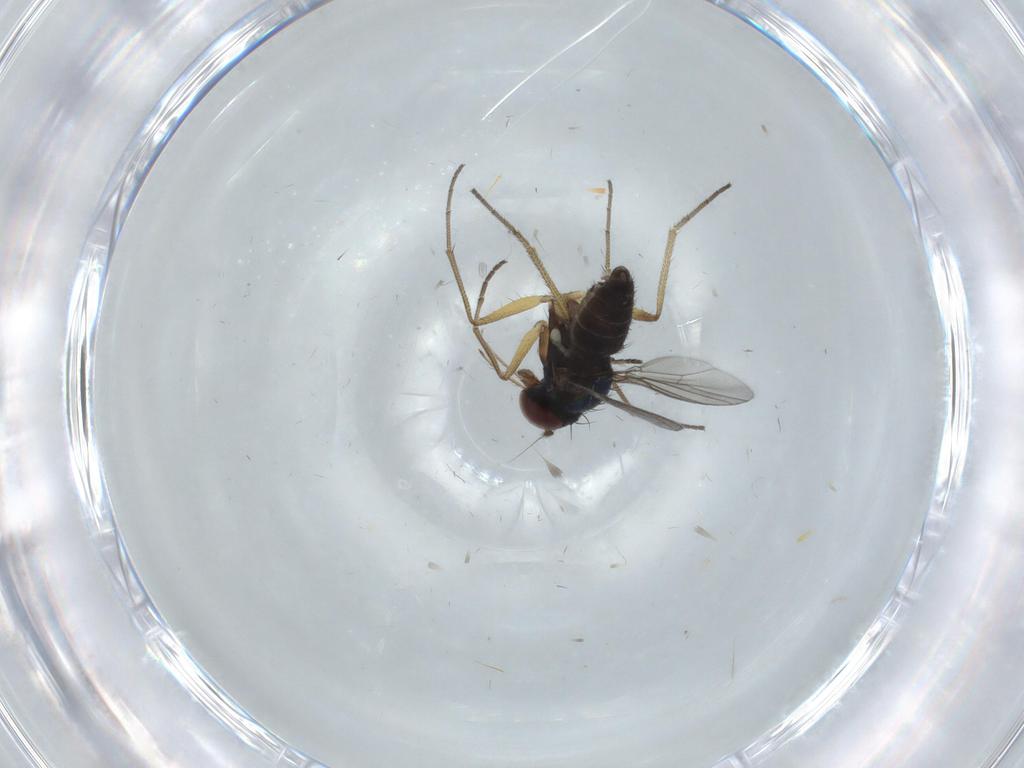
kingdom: Animalia
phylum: Arthropoda
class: Insecta
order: Diptera
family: Dolichopodidae
